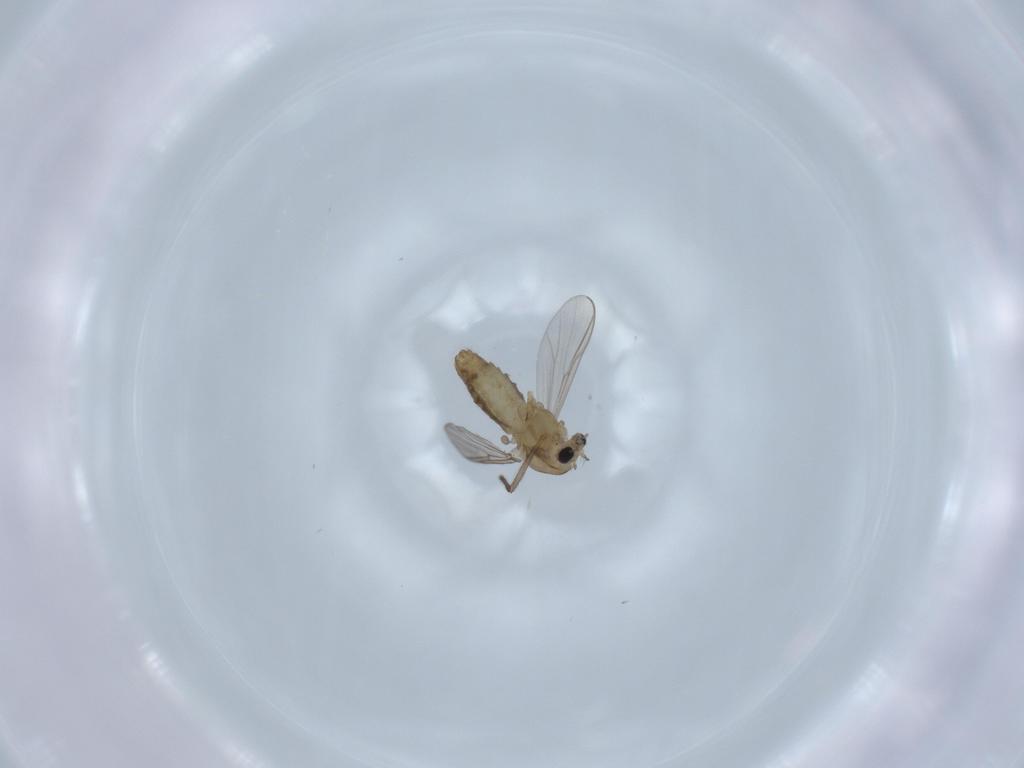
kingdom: Animalia
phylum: Arthropoda
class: Insecta
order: Diptera
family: Chironomidae
